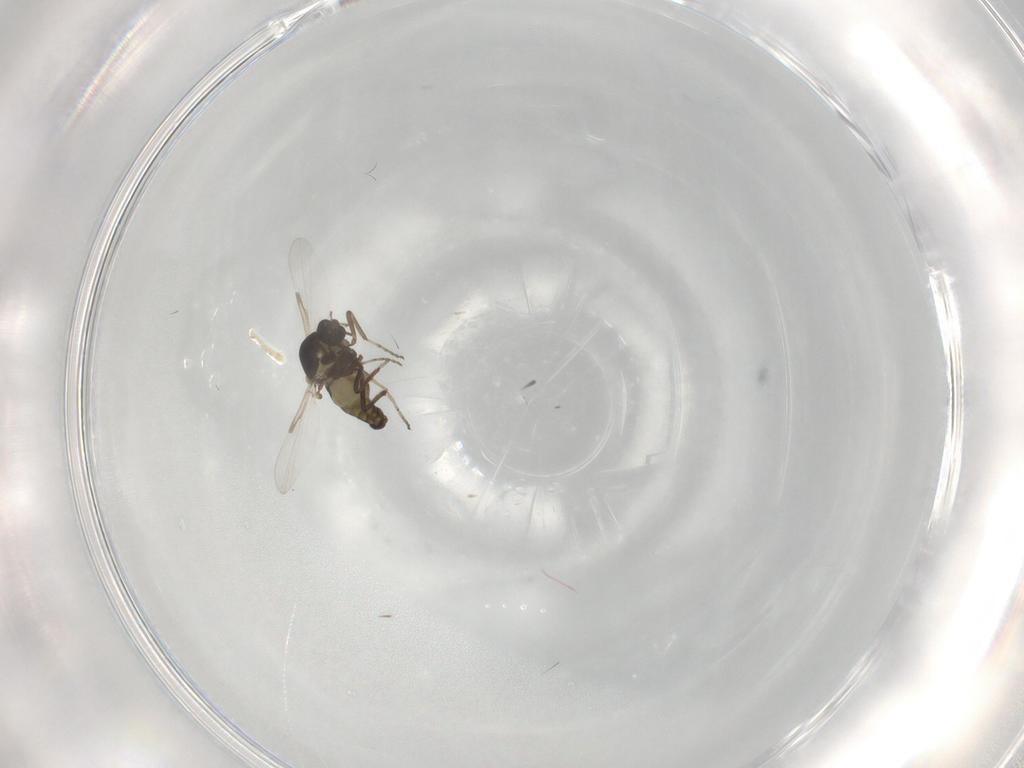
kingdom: Animalia
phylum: Arthropoda
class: Insecta
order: Diptera
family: Ceratopogonidae
